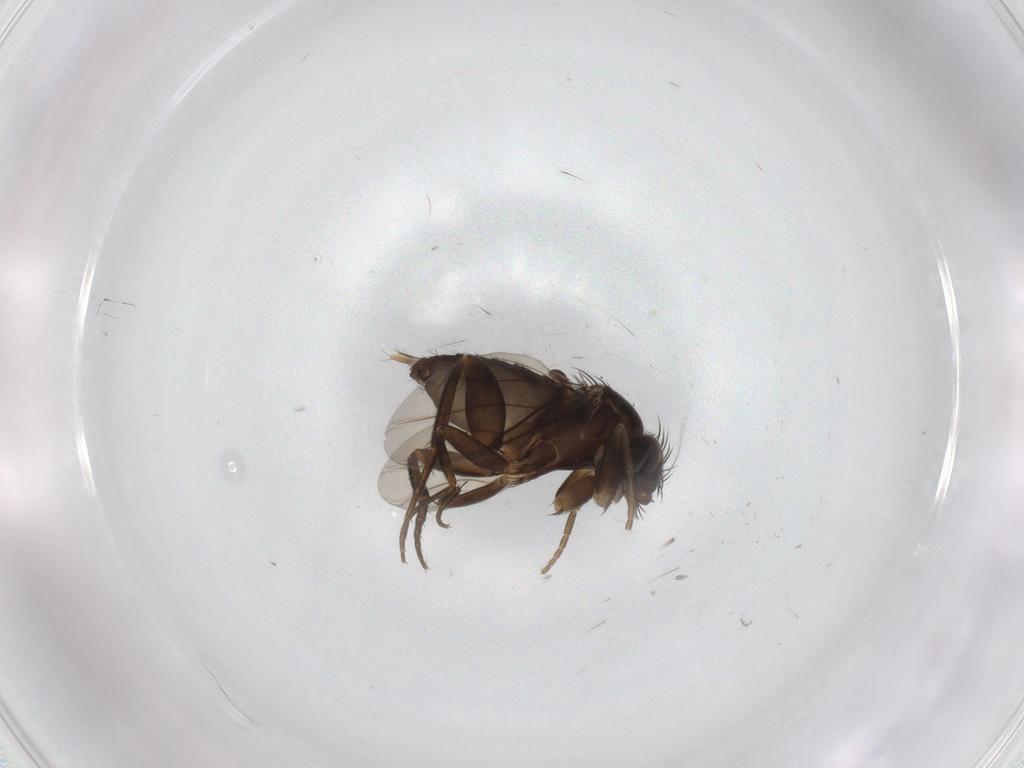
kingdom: Animalia
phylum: Arthropoda
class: Insecta
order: Diptera
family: Phoridae
